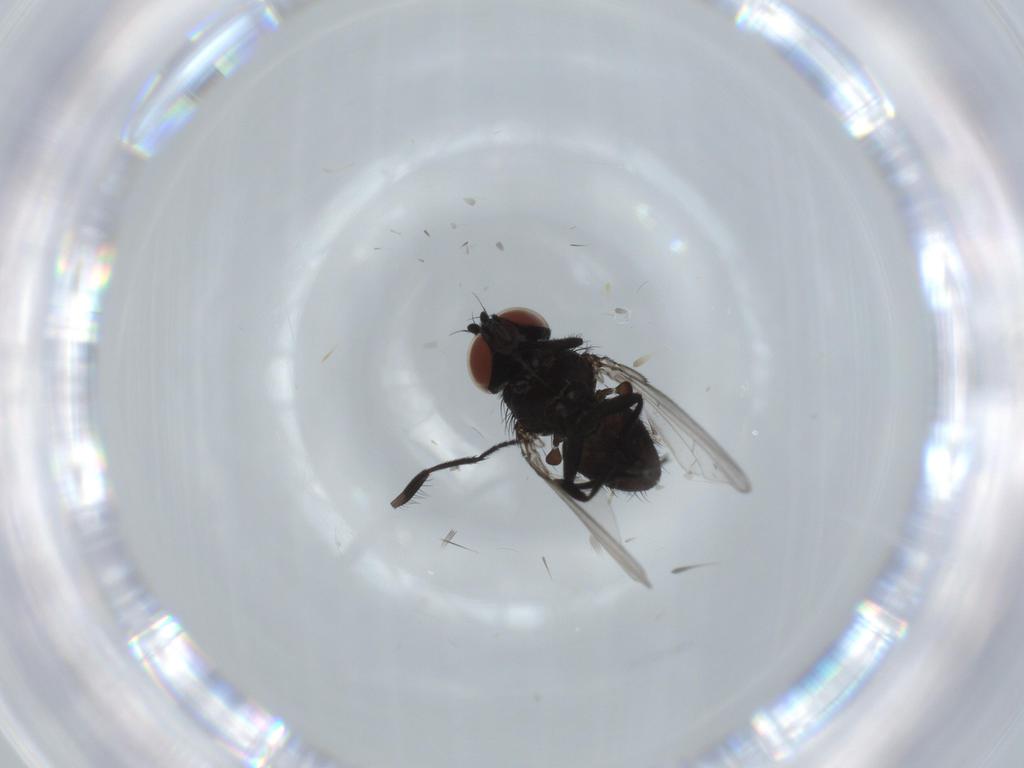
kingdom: Animalia
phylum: Arthropoda
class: Insecta
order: Diptera
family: Milichiidae
